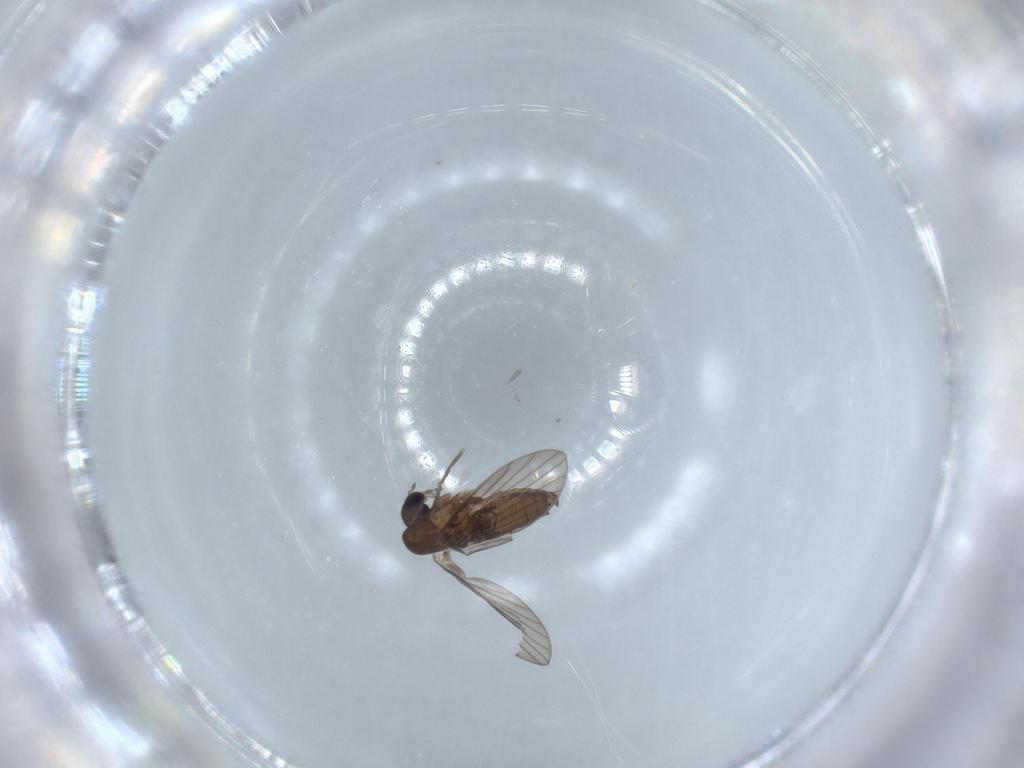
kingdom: Animalia
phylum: Arthropoda
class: Insecta
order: Diptera
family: Psychodidae
